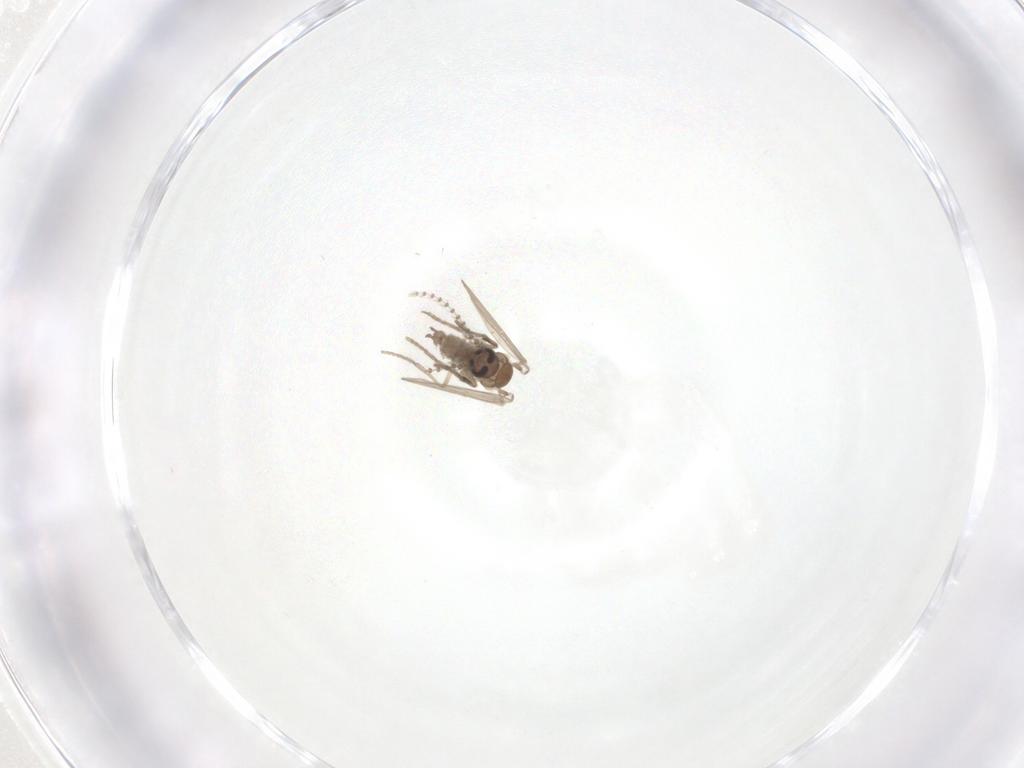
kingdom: Animalia
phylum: Arthropoda
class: Insecta
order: Diptera
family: Psychodidae
